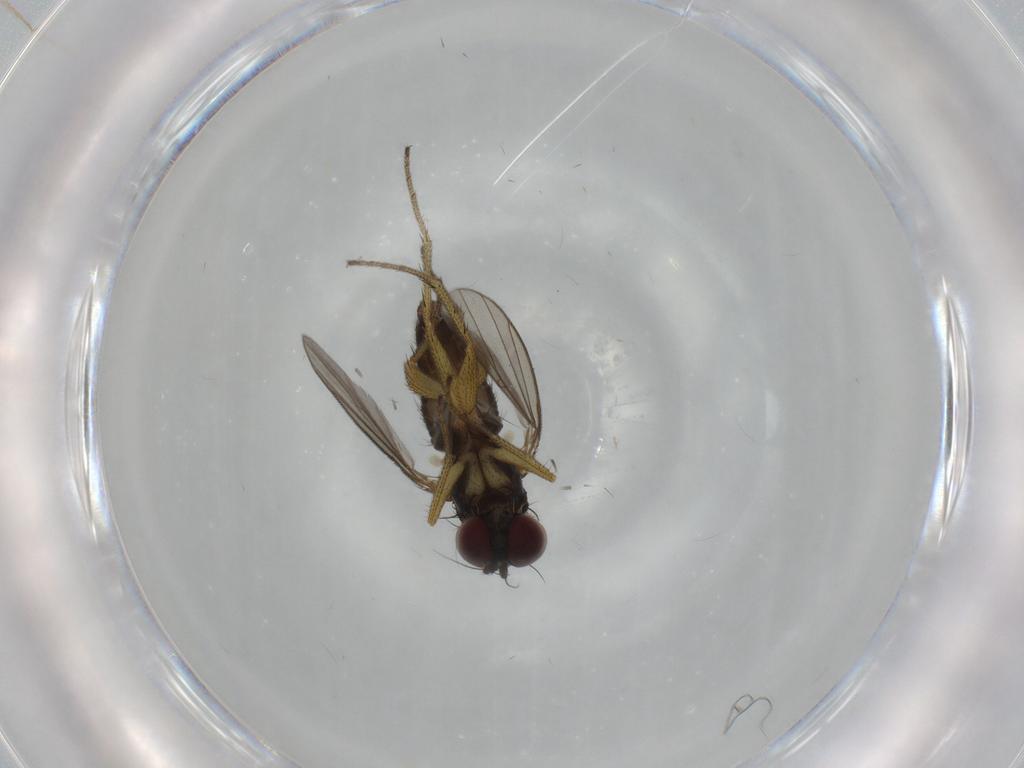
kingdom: Animalia
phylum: Arthropoda
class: Insecta
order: Diptera
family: Dolichopodidae
